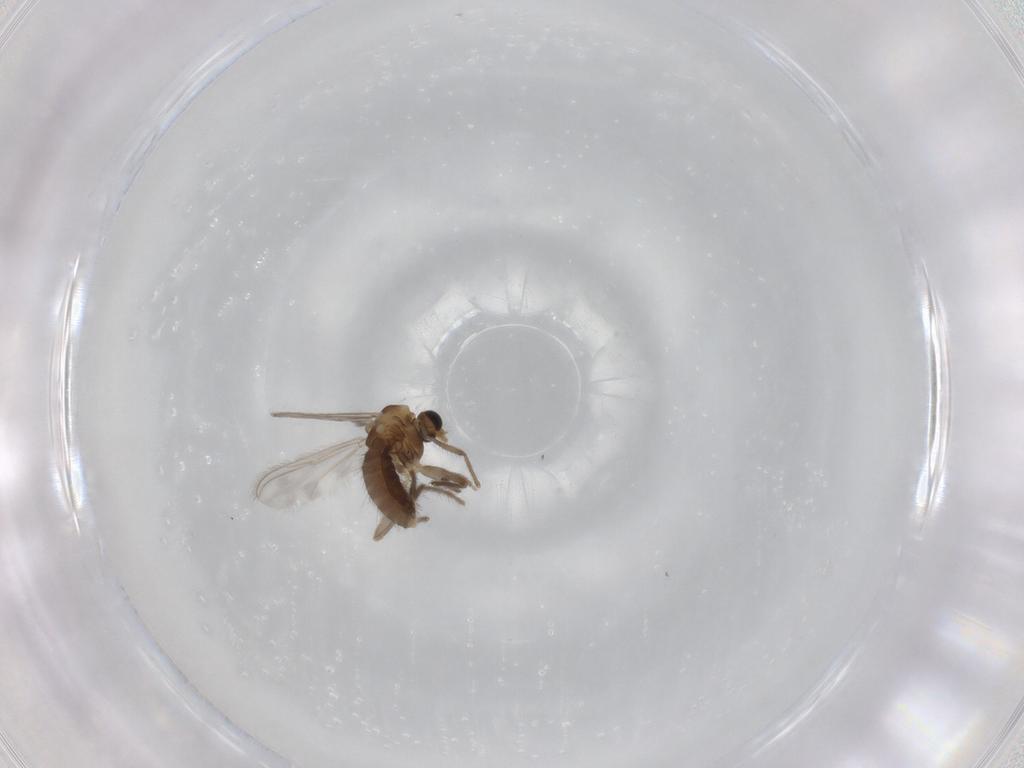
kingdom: Animalia
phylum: Arthropoda
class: Insecta
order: Diptera
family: Chironomidae
